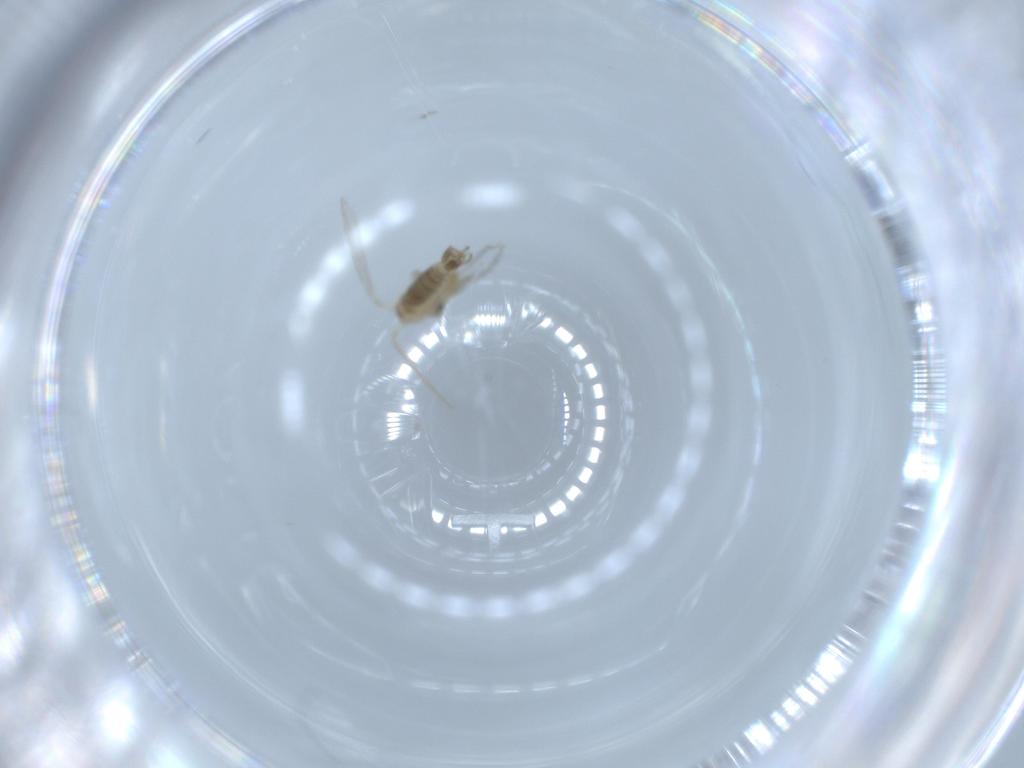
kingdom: Animalia
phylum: Arthropoda
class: Insecta
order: Diptera
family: Psychodidae
